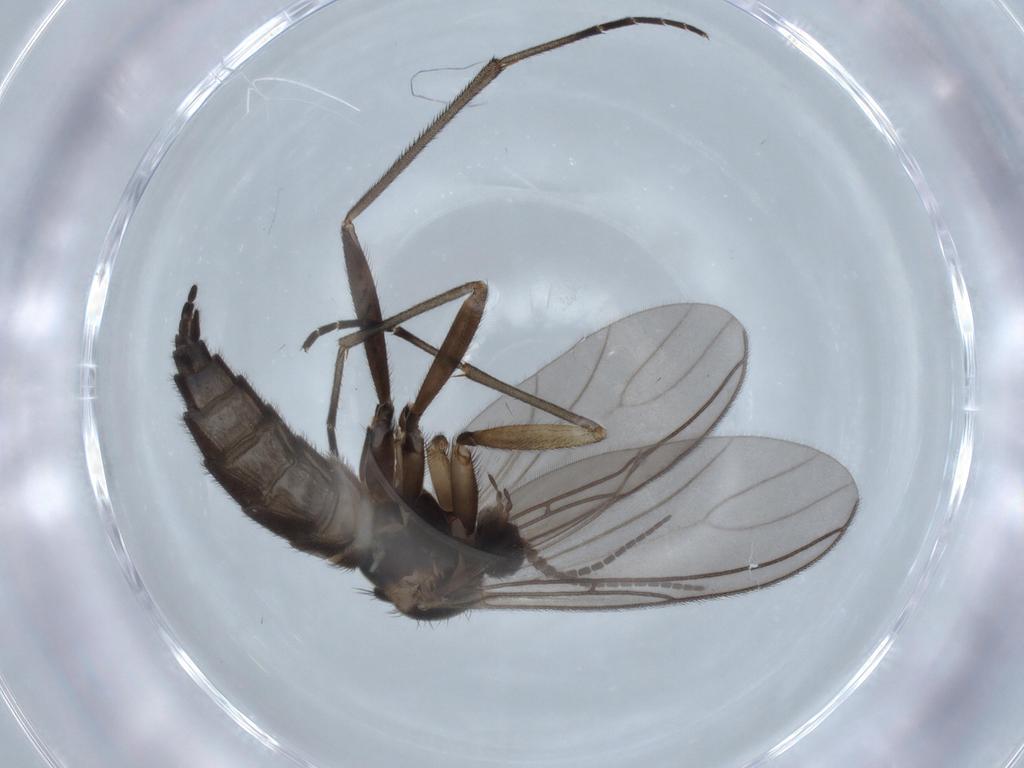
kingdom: Animalia
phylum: Arthropoda
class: Insecta
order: Diptera
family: Sciaridae
